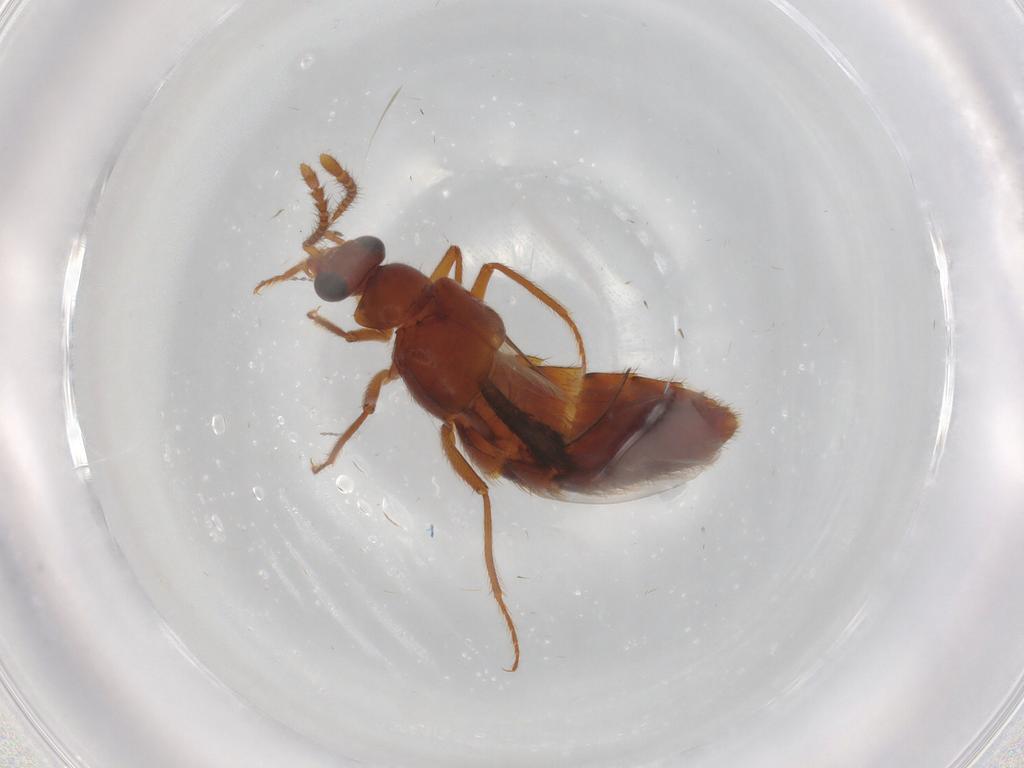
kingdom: Animalia
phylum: Arthropoda
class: Insecta
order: Coleoptera
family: Staphylinidae
